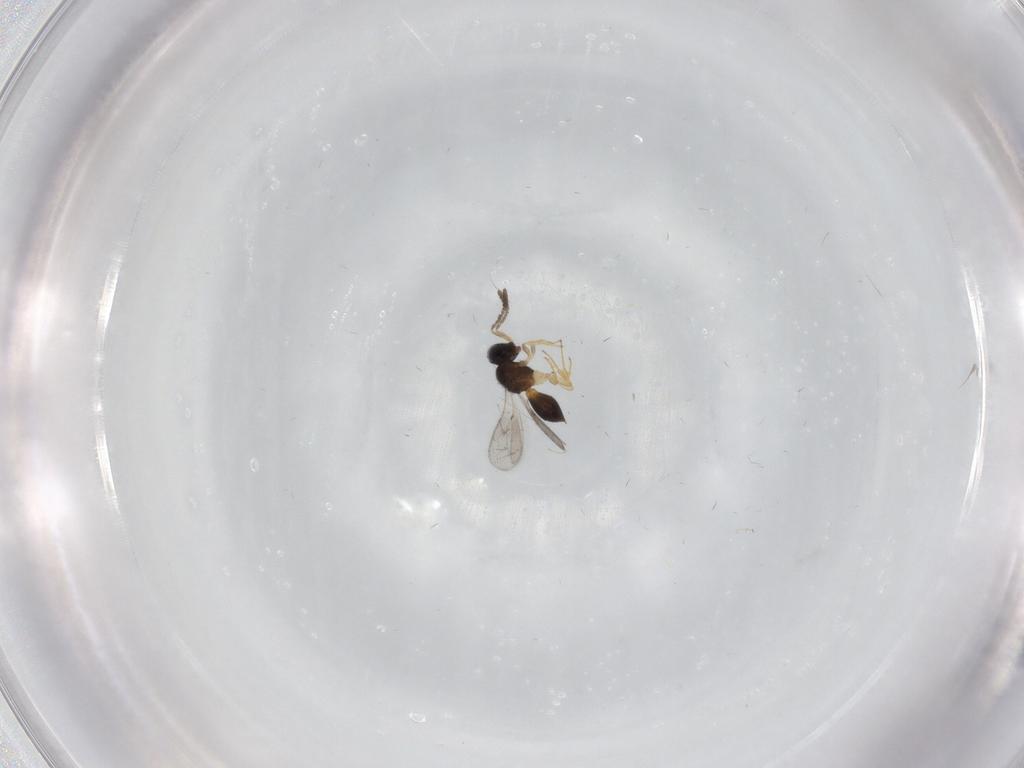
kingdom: Animalia
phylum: Arthropoda
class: Insecta
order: Hymenoptera
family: Scelionidae
